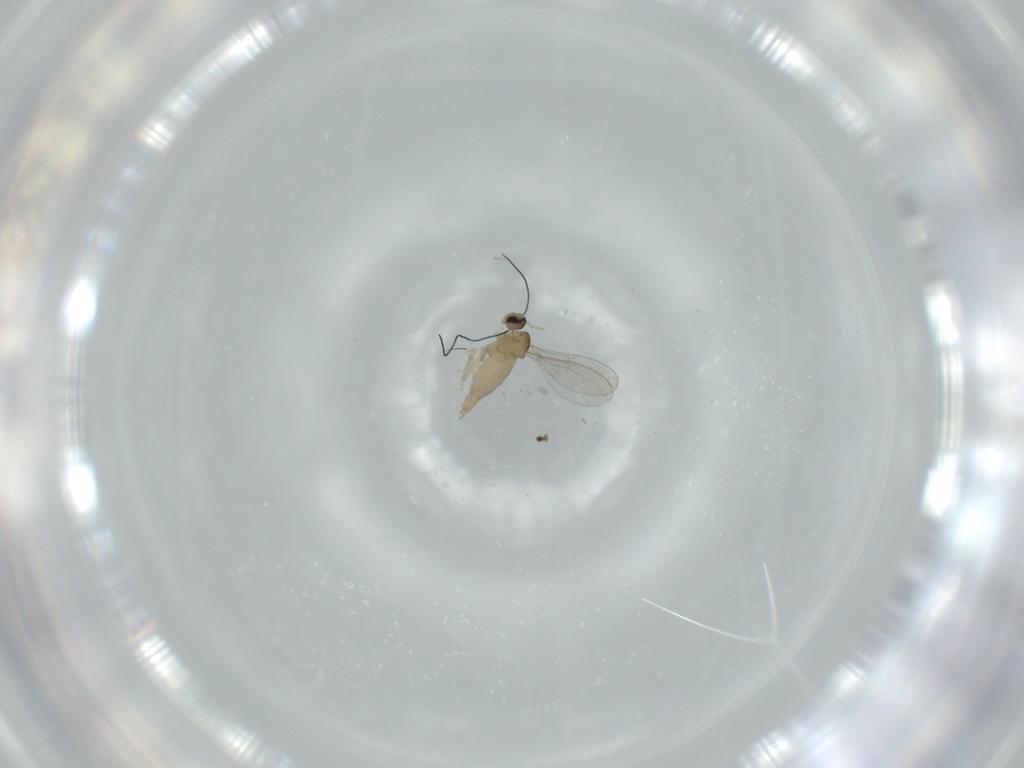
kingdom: Animalia
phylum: Arthropoda
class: Insecta
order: Diptera
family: Cecidomyiidae
